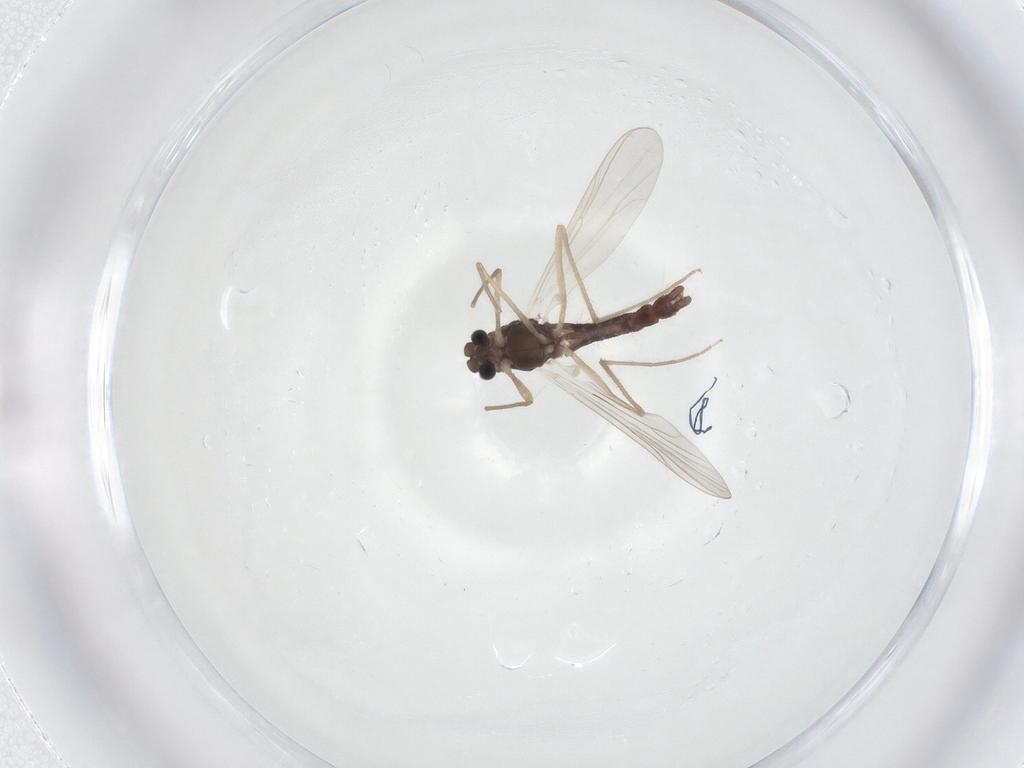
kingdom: Animalia
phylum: Arthropoda
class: Insecta
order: Diptera
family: Chironomidae
